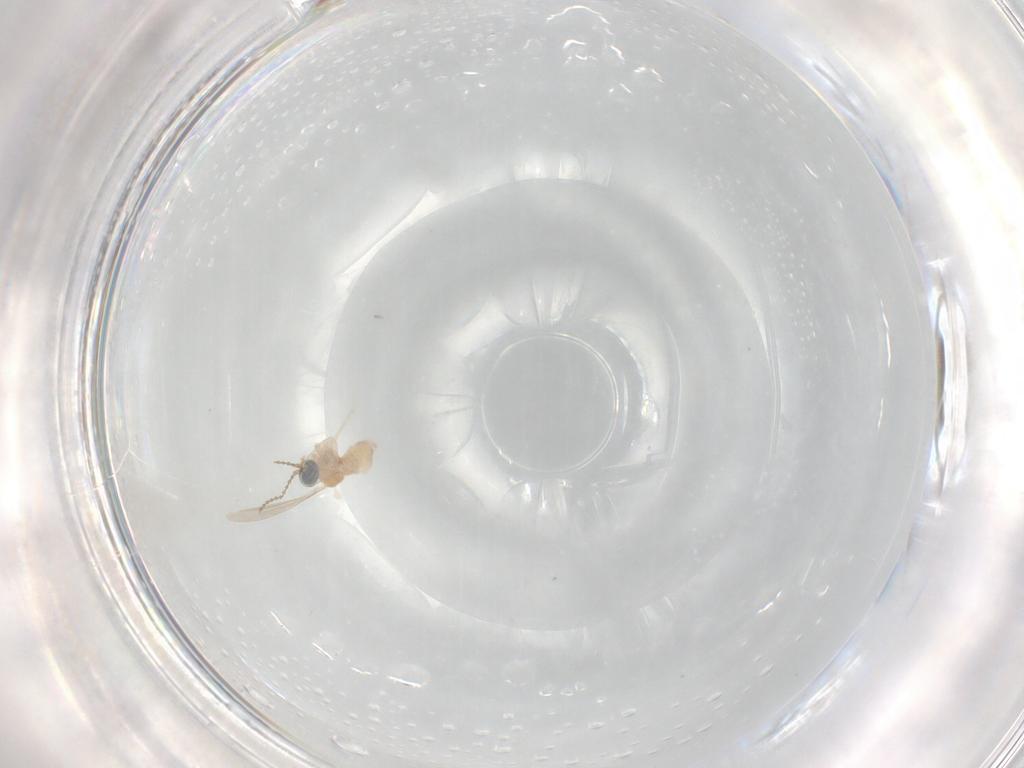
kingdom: Animalia
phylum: Arthropoda
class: Insecta
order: Diptera
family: Cecidomyiidae
